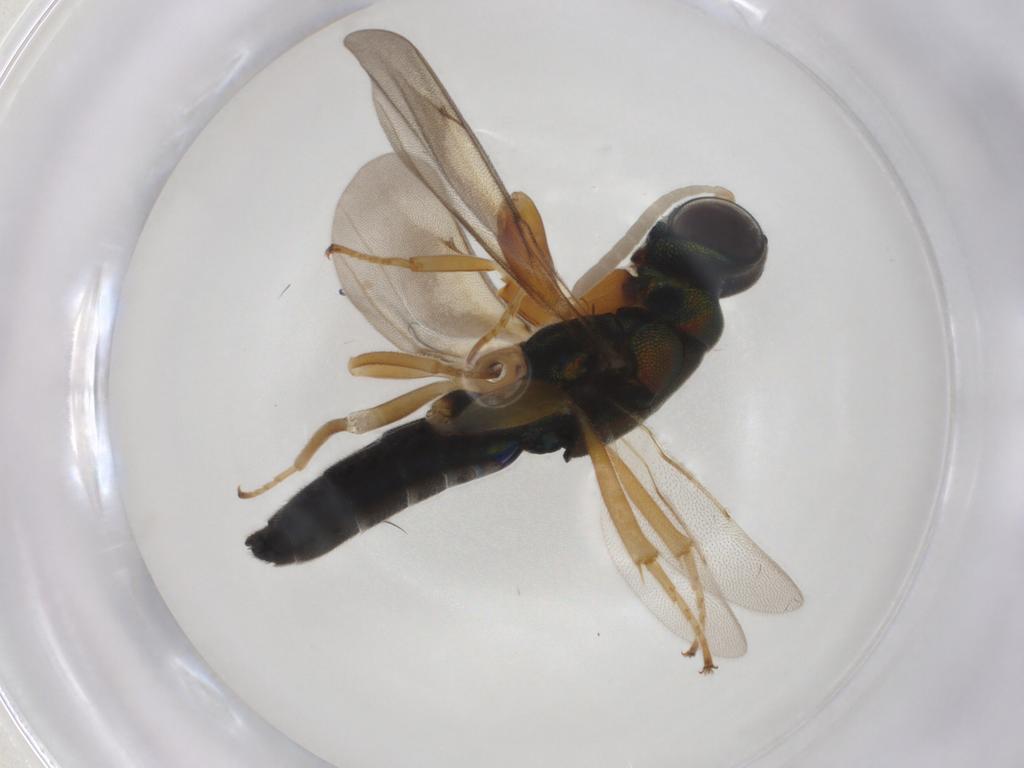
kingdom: Animalia
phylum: Arthropoda
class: Insecta
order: Hymenoptera
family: Lyciscidae
